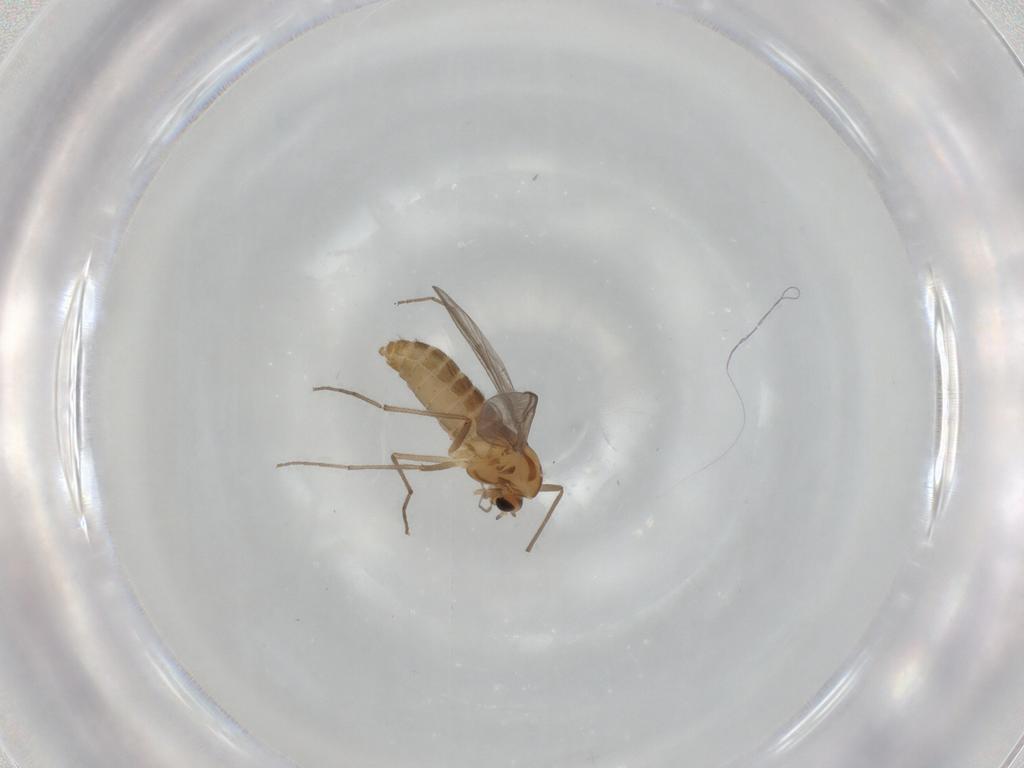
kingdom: Animalia
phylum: Arthropoda
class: Insecta
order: Diptera
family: Chironomidae
